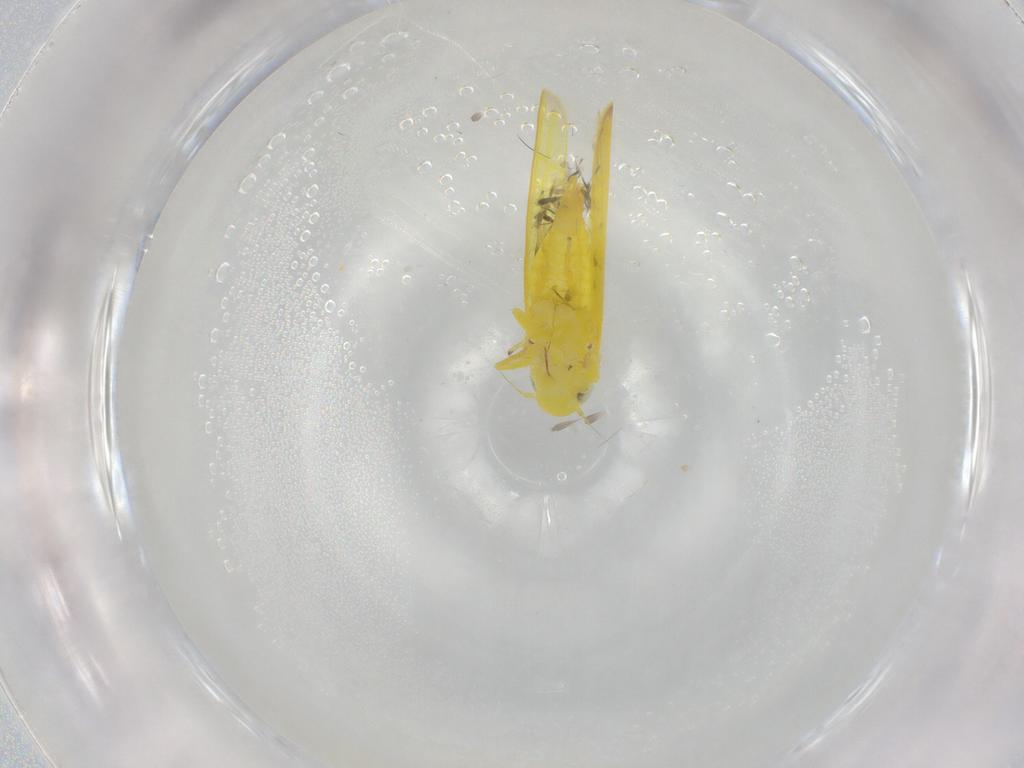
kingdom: Animalia
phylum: Arthropoda
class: Insecta
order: Hemiptera
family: Cicadellidae
